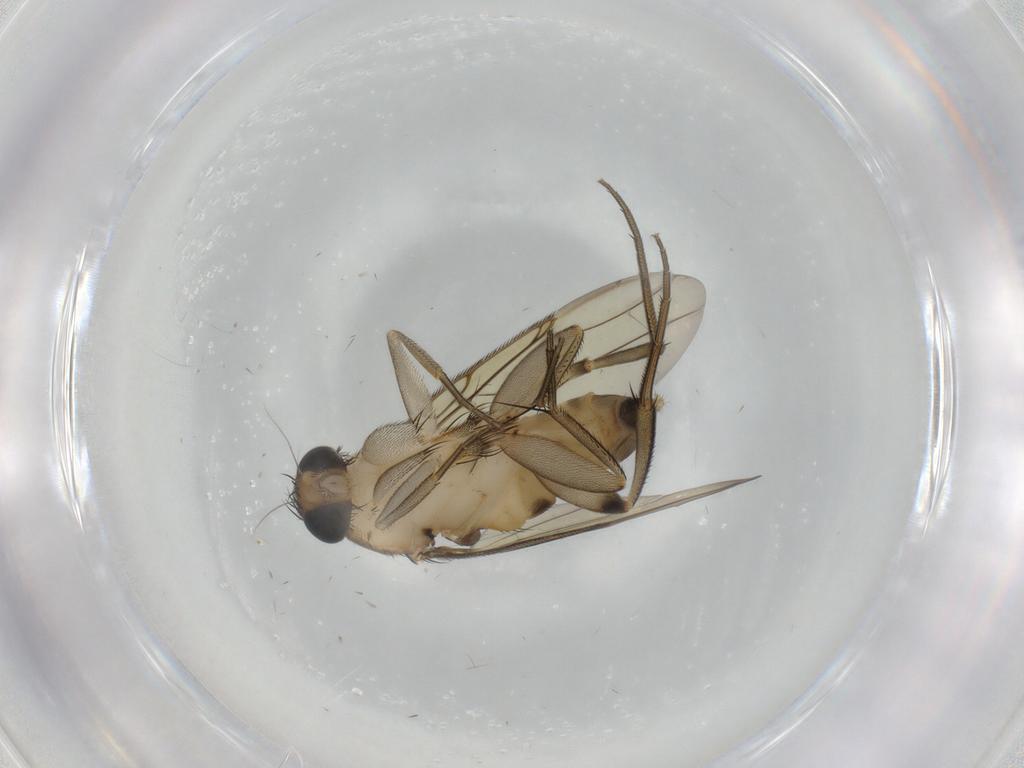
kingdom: Animalia
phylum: Arthropoda
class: Insecta
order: Diptera
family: Phoridae
